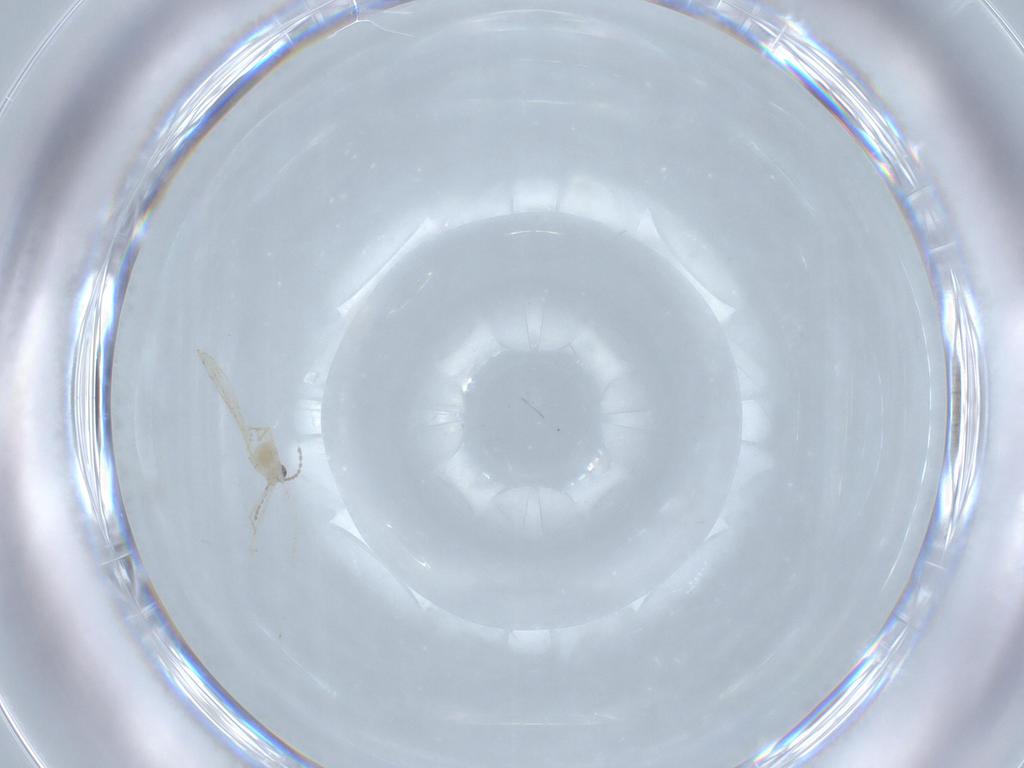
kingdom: Animalia
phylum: Arthropoda
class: Insecta
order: Diptera
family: Cecidomyiidae
